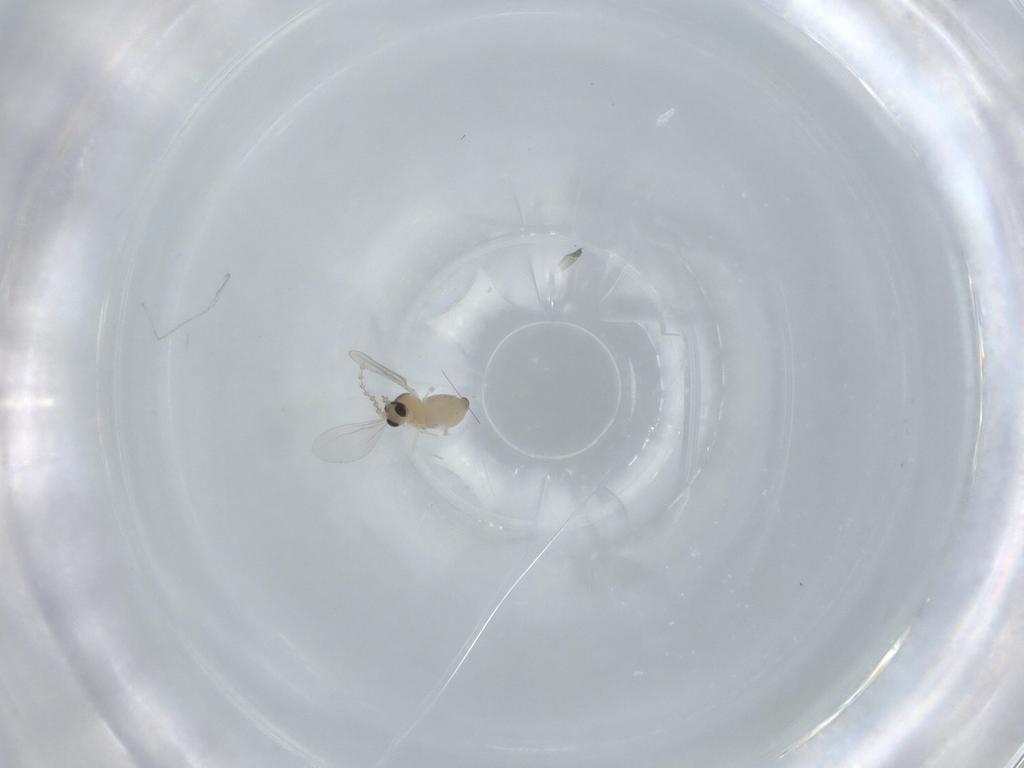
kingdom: Animalia
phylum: Arthropoda
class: Insecta
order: Diptera
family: Cecidomyiidae
